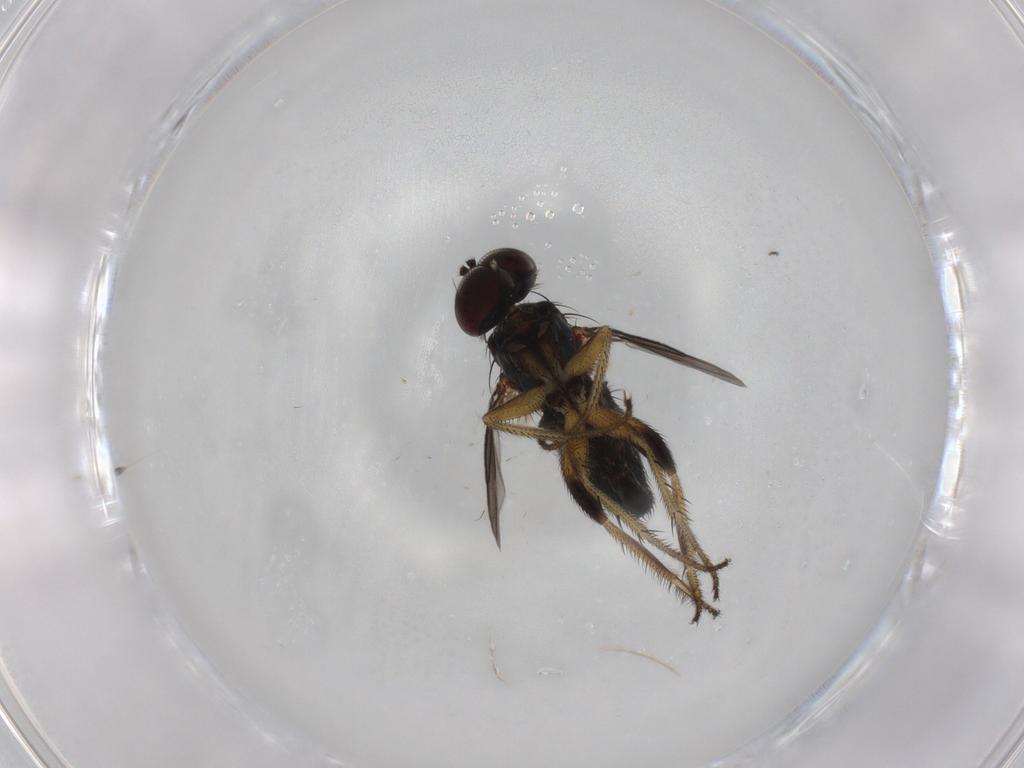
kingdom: Animalia
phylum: Arthropoda
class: Insecta
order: Diptera
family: Dolichopodidae
